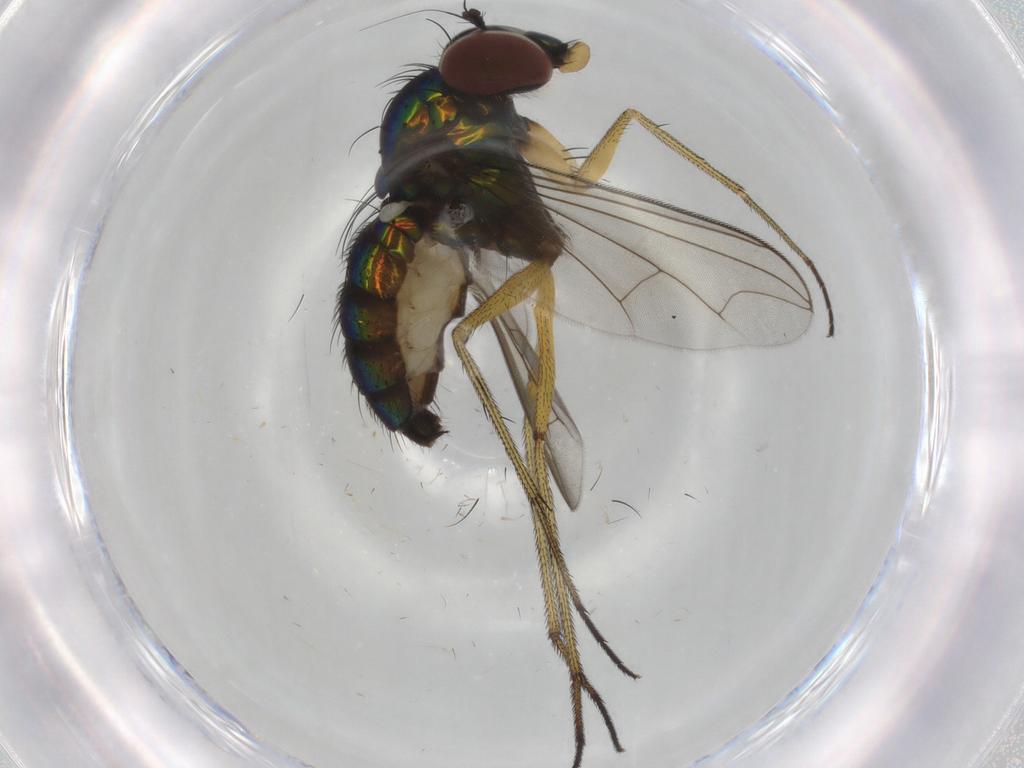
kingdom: Animalia
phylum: Arthropoda
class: Insecta
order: Diptera
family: Dolichopodidae
